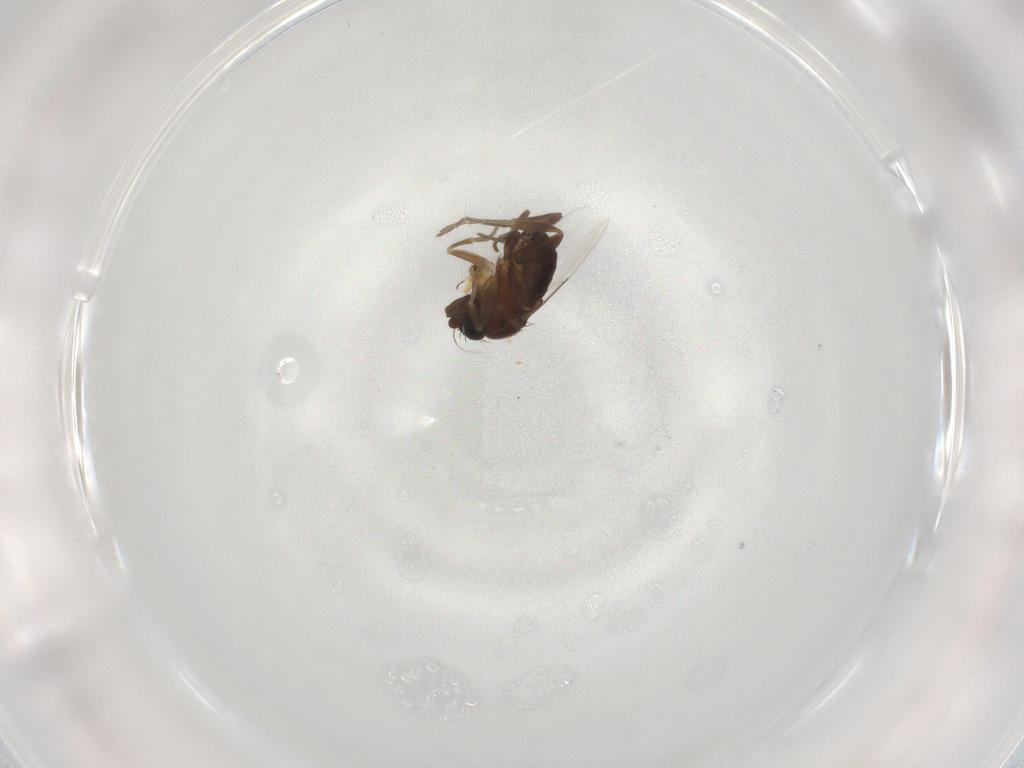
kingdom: Animalia
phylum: Arthropoda
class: Insecta
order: Diptera
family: Phoridae
